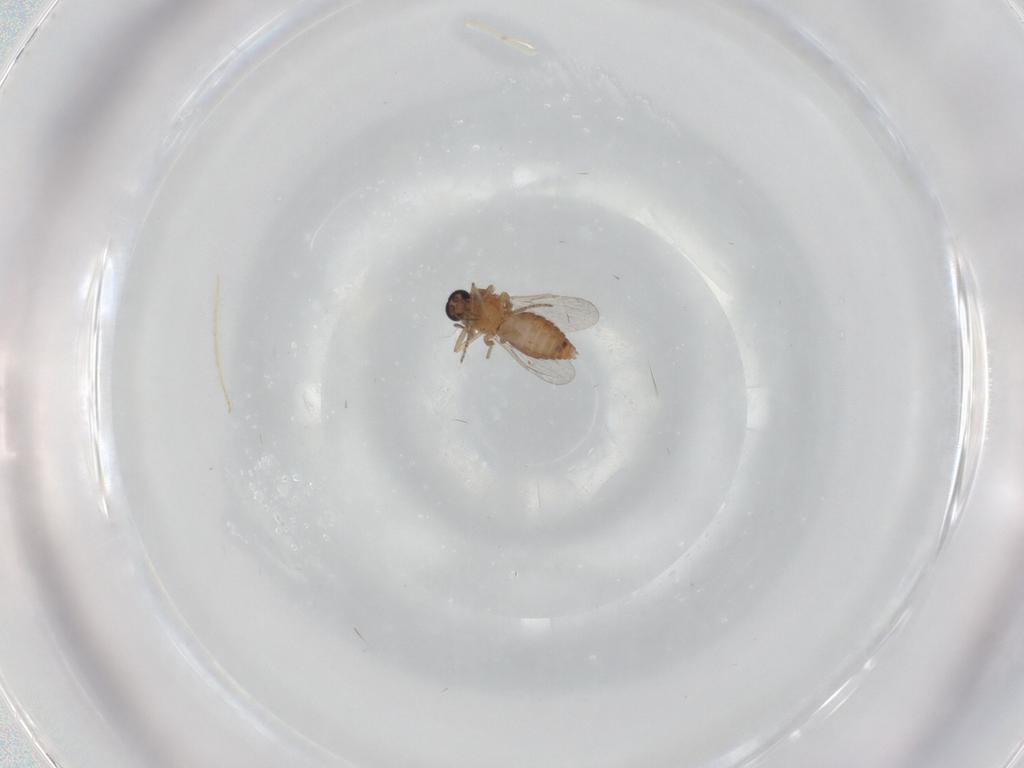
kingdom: Animalia
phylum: Arthropoda
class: Insecta
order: Diptera
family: Ceratopogonidae
